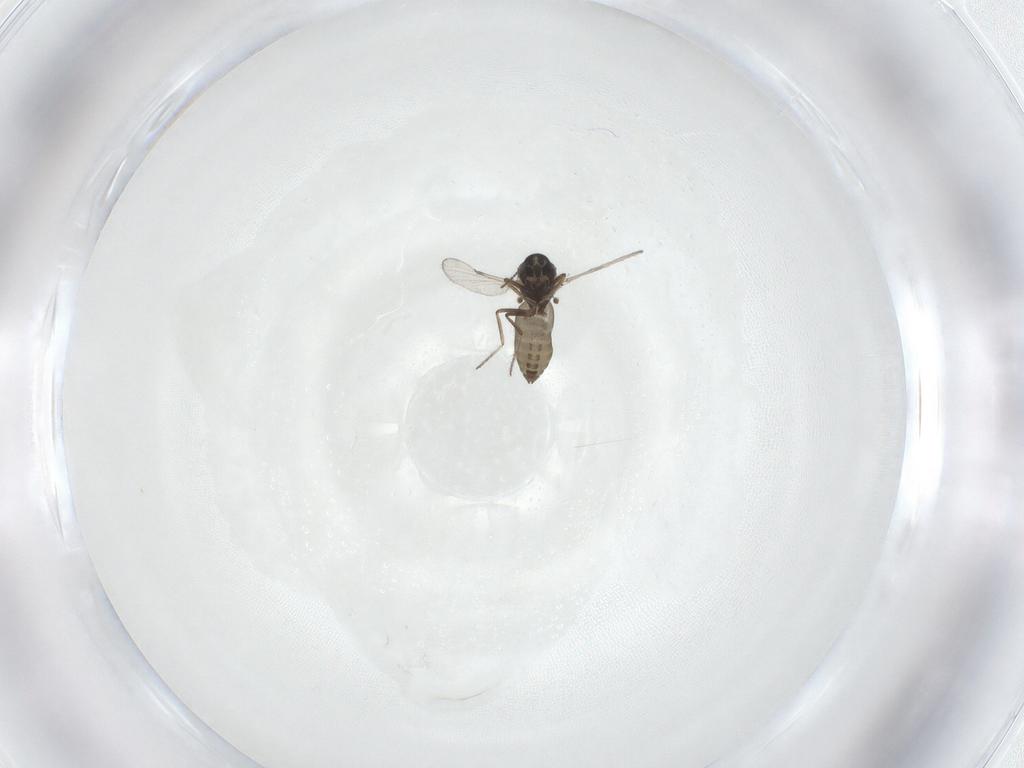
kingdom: Animalia
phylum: Arthropoda
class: Insecta
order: Diptera
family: Ceratopogonidae
